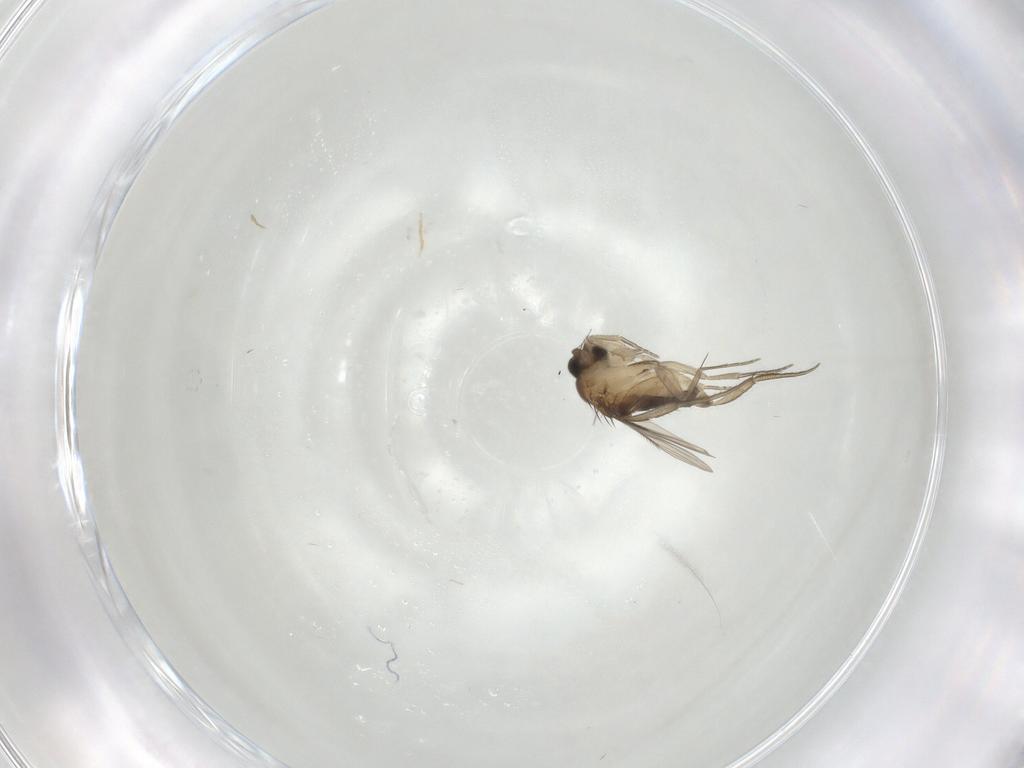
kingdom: Animalia
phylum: Arthropoda
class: Insecta
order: Diptera
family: Phoridae
